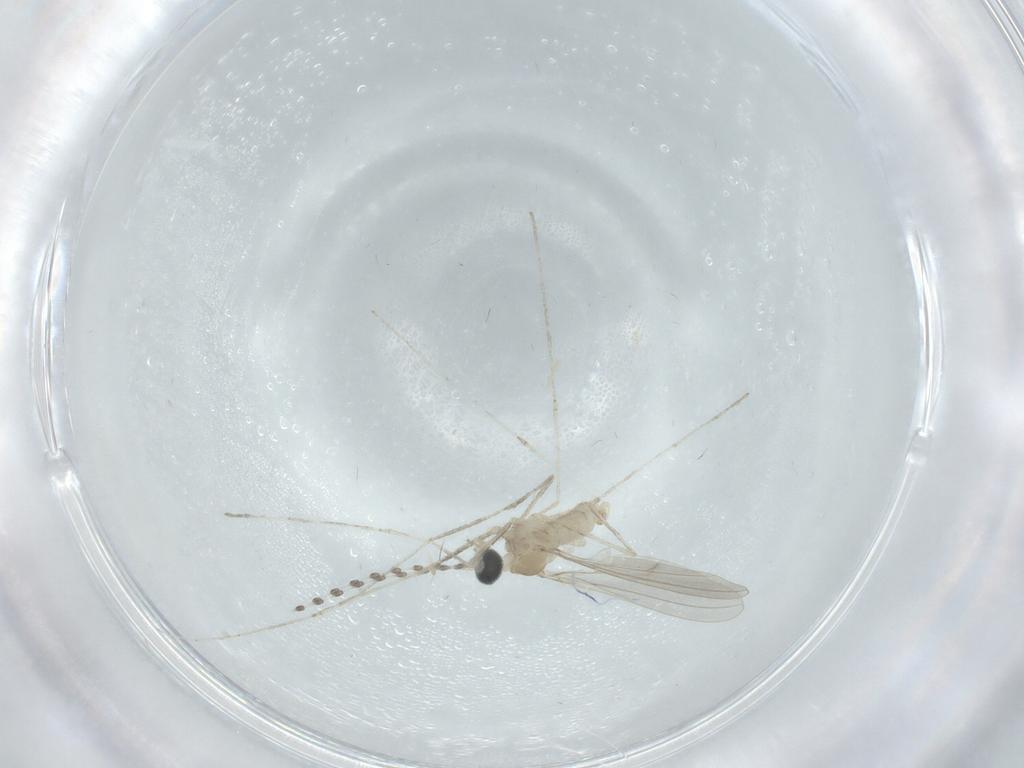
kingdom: Animalia
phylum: Arthropoda
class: Insecta
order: Diptera
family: Cecidomyiidae
